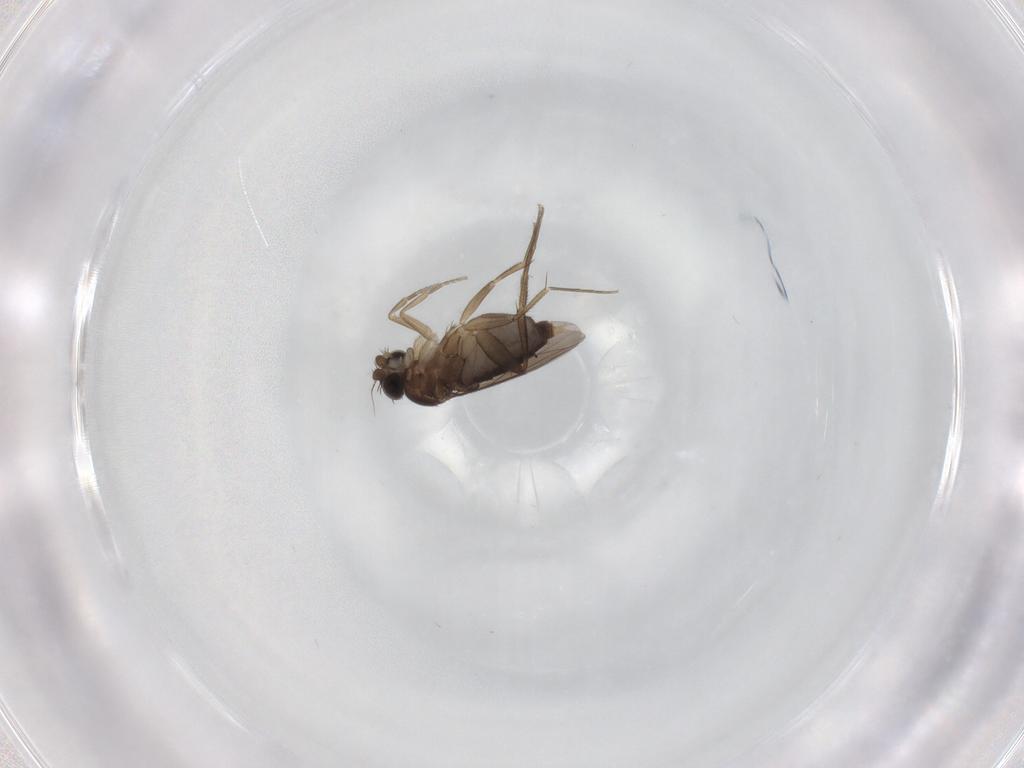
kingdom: Animalia
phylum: Arthropoda
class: Insecta
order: Diptera
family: Phoridae
